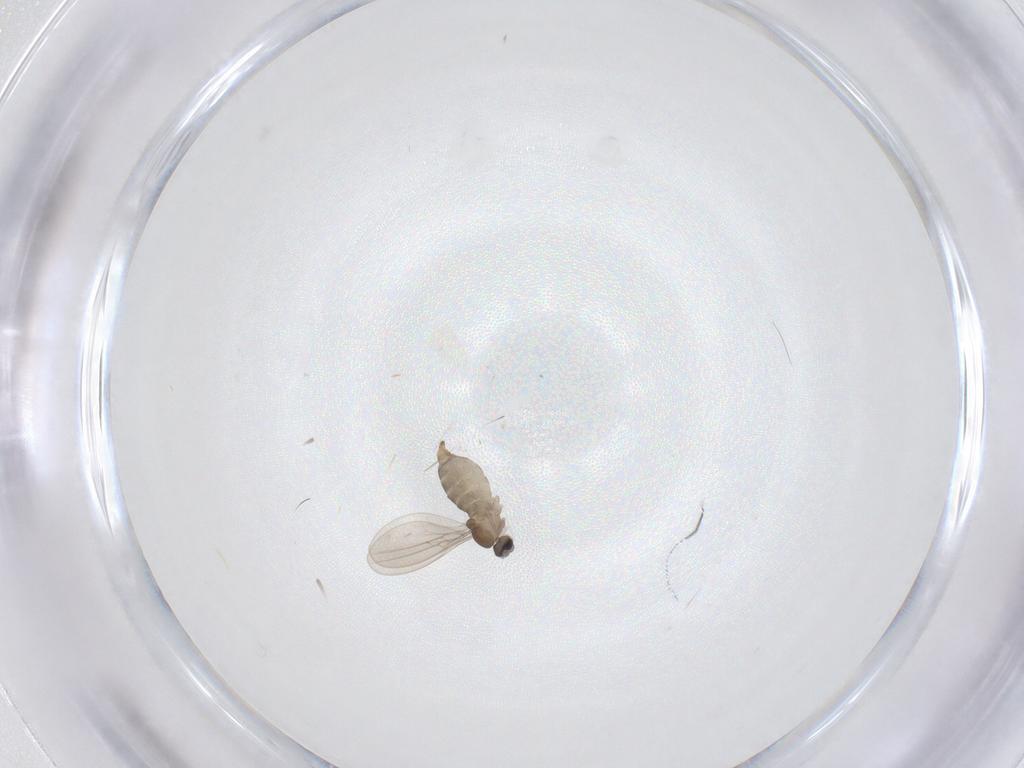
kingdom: Animalia
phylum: Arthropoda
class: Insecta
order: Diptera
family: Cecidomyiidae
